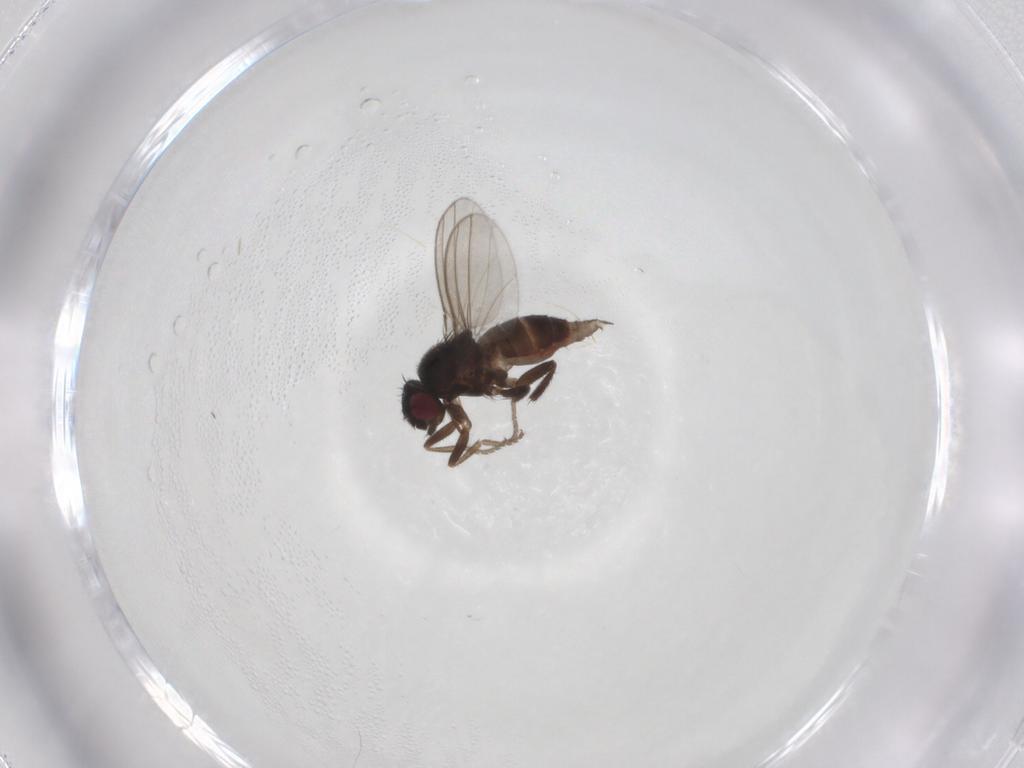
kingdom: Animalia
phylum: Arthropoda
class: Insecta
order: Diptera
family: Milichiidae
